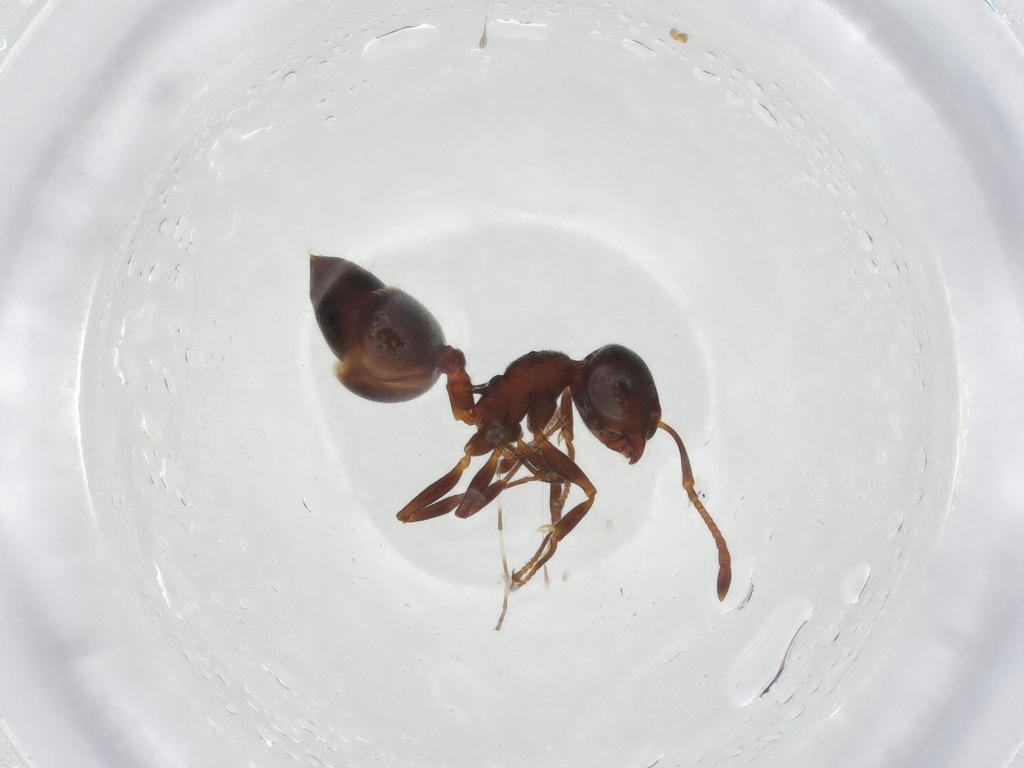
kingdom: Animalia
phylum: Arthropoda
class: Insecta
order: Hymenoptera
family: Formicidae
